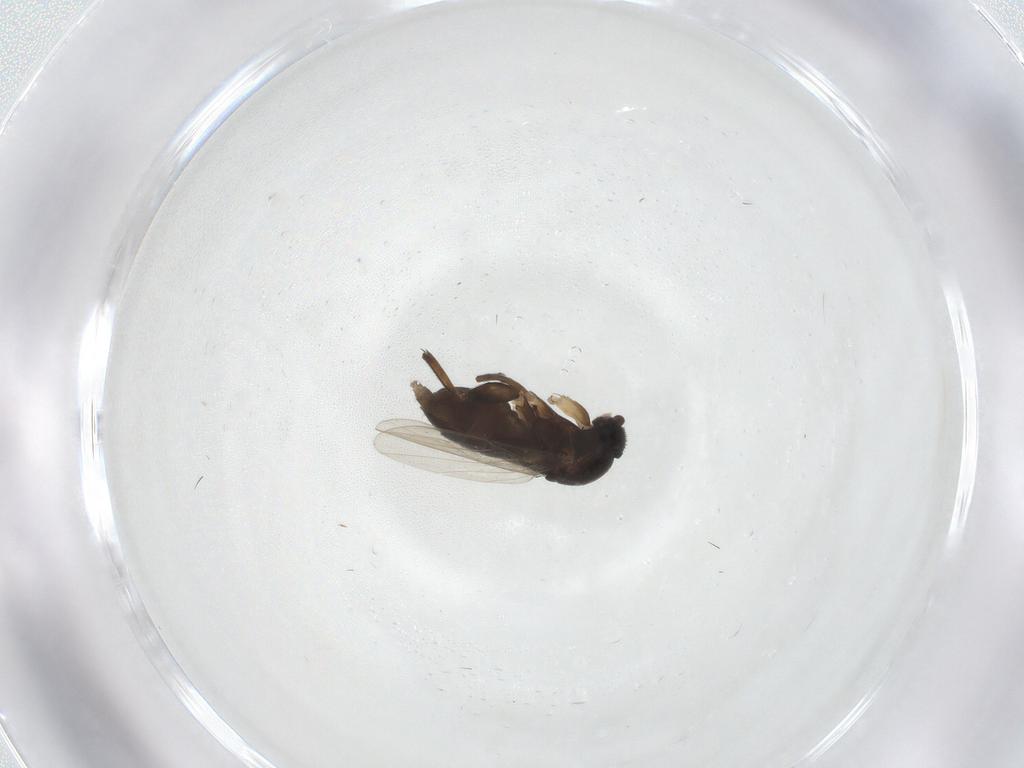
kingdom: Animalia
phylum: Arthropoda
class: Insecta
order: Diptera
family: Phoridae
